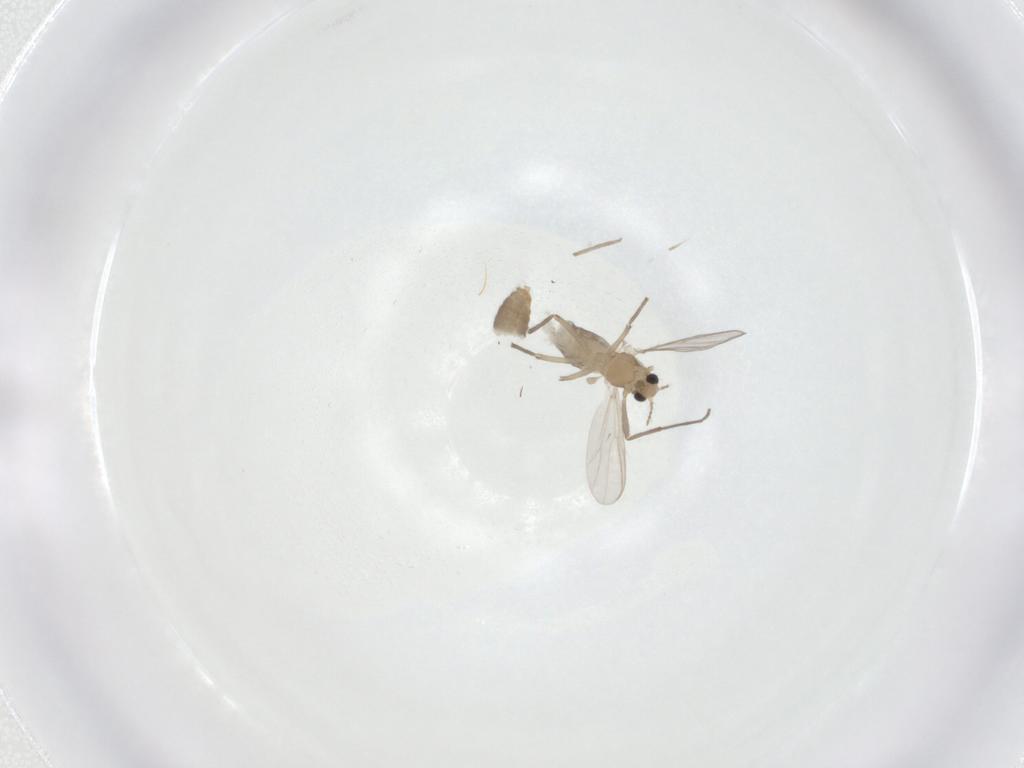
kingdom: Animalia
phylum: Arthropoda
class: Insecta
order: Diptera
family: Chironomidae
